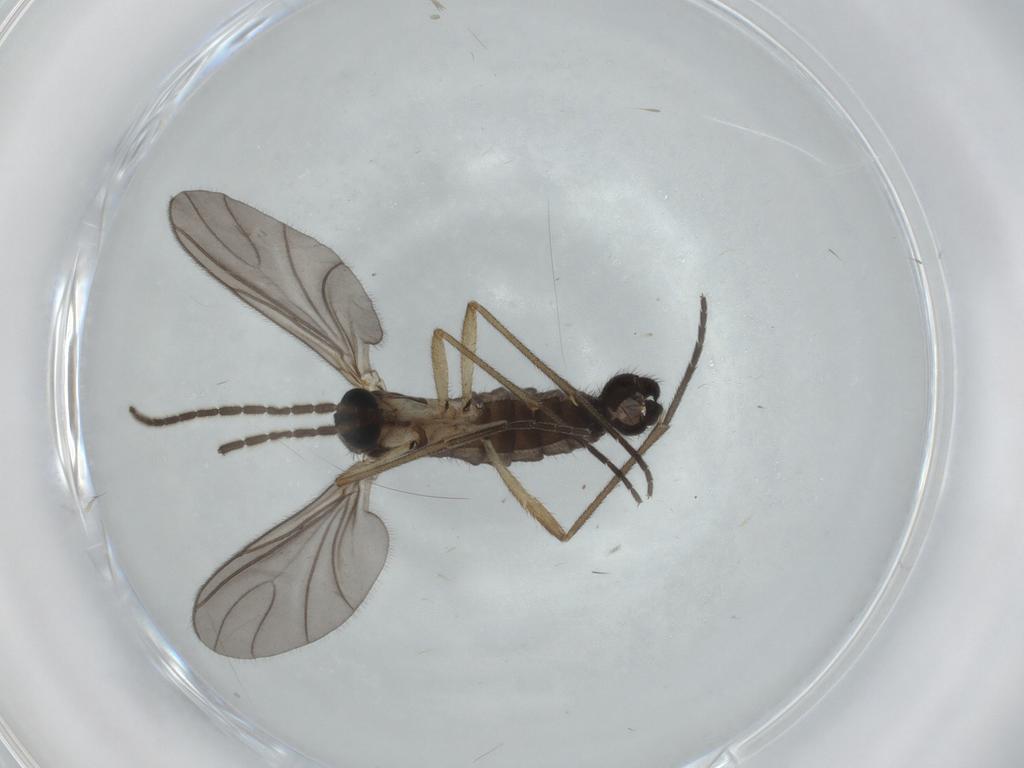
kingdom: Animalia
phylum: Arthropoda
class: Insecta
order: Diptera
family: Sciaridae
